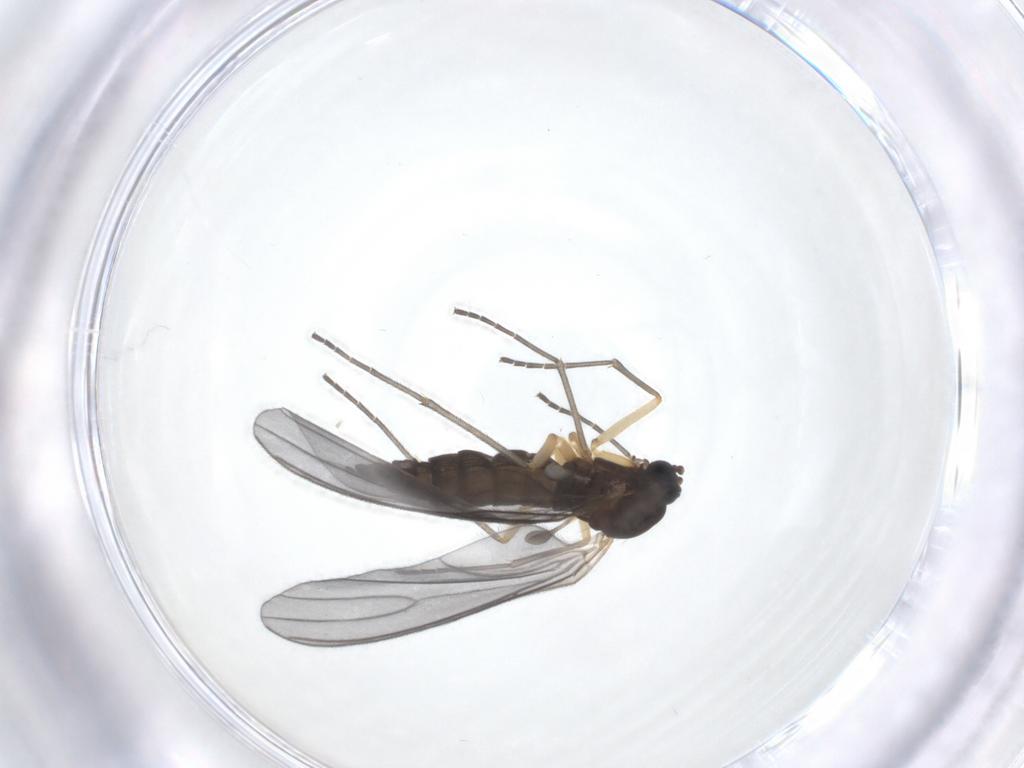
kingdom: Animalia
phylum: Arthropoda
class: Insecta
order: Diptera
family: Sciaridae
